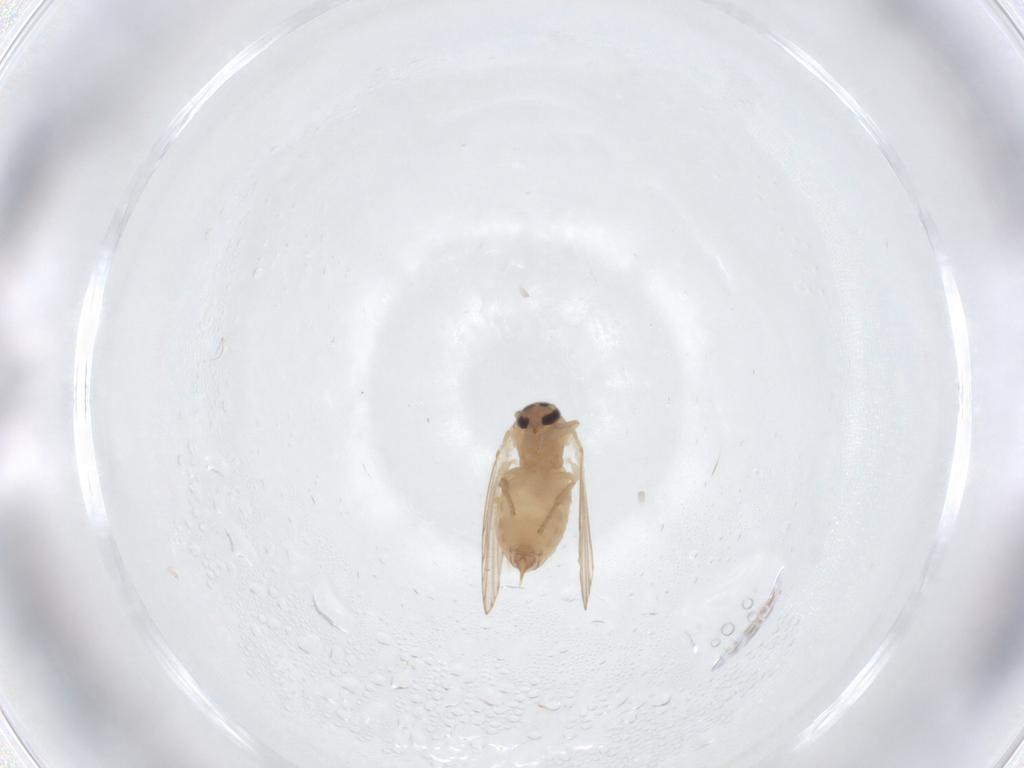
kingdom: Animalia
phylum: Arthropoda
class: Insecta
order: Diptera
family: Psychodidae
